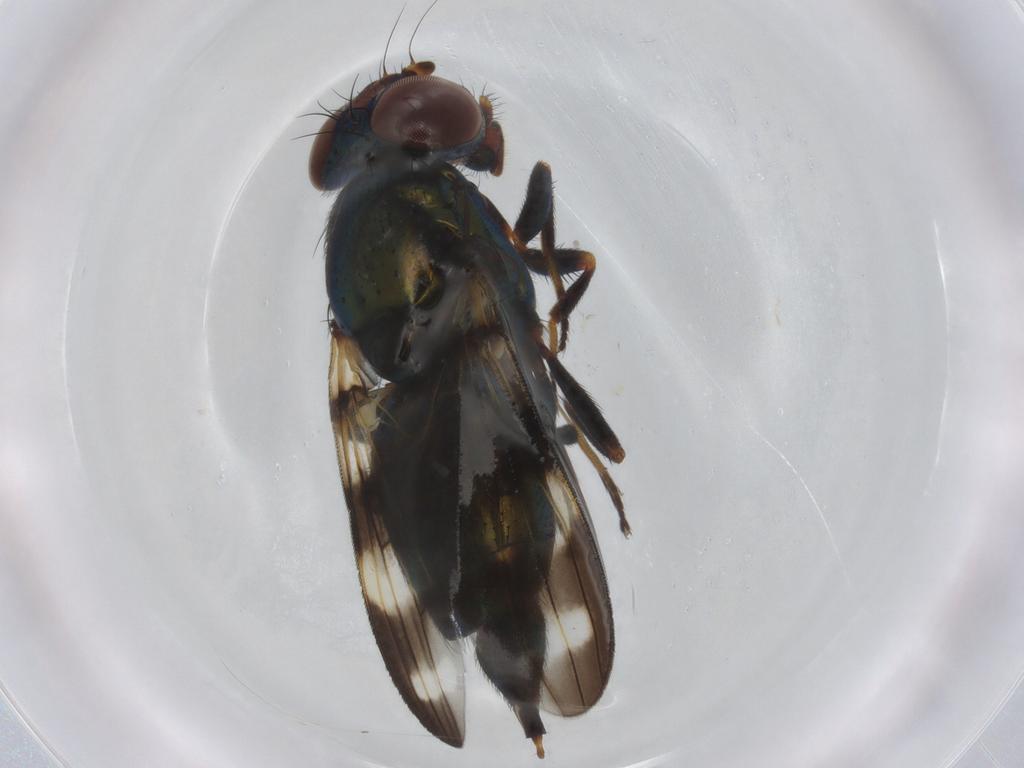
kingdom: Animalia
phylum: Arthropoda
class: Insecta
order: Diptera
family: Ulidiidae
